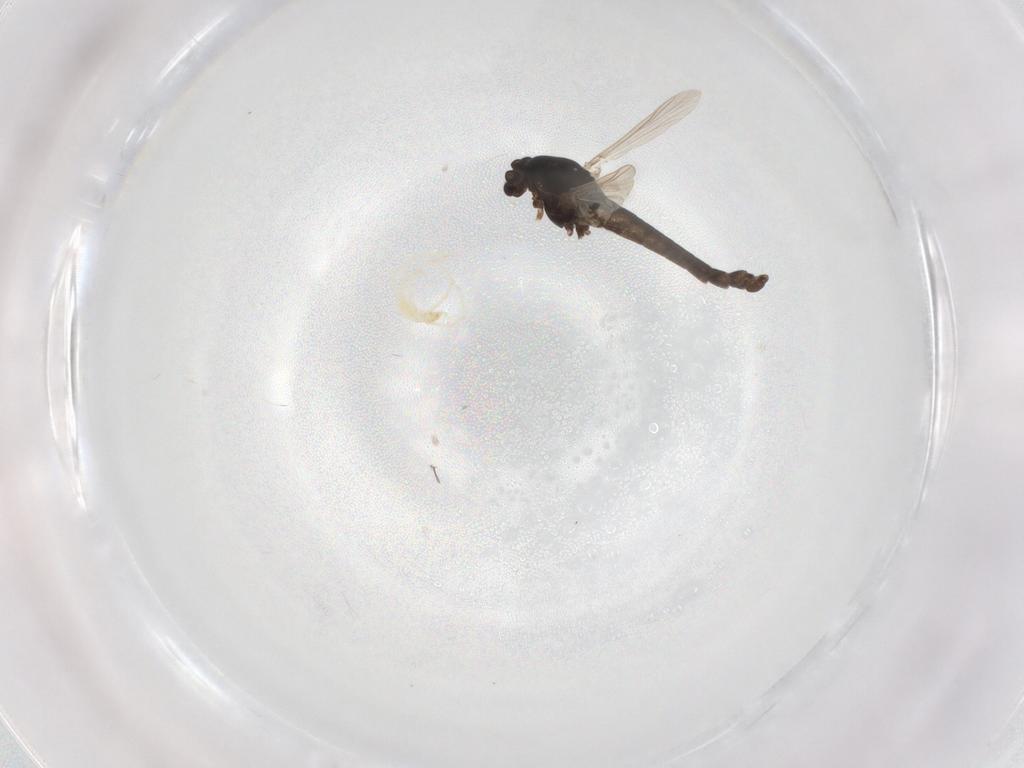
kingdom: Animalia
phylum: Arthropoda
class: Insecta
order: Diptera
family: Chironomidae
